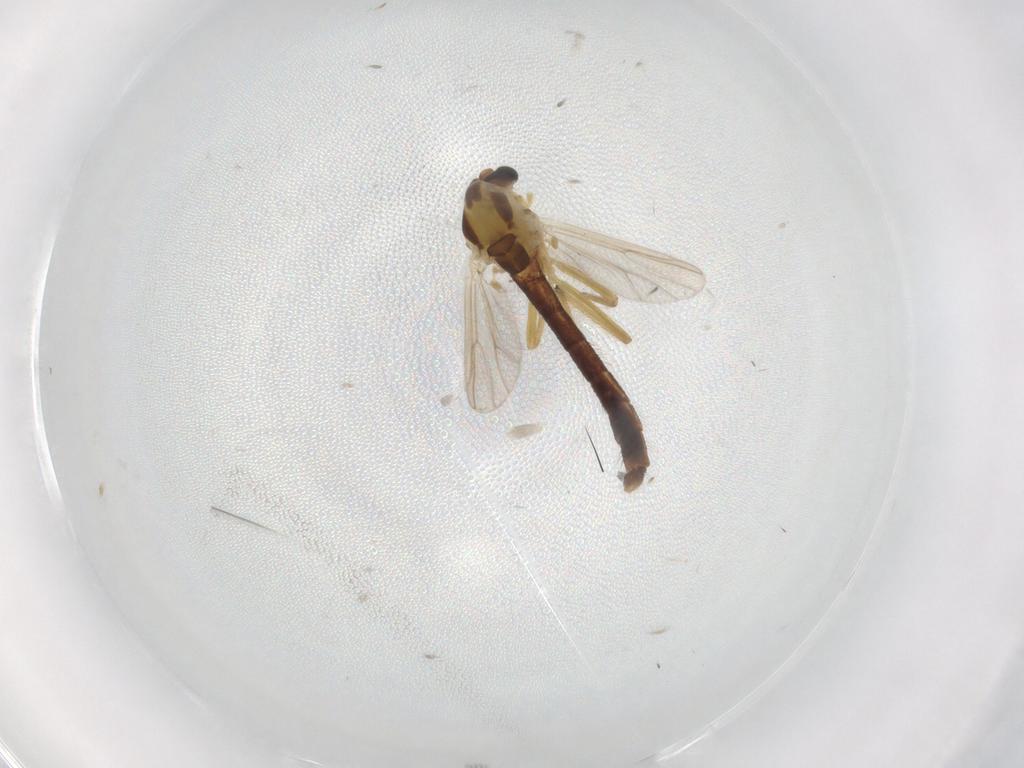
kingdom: Animalia
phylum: Arthropoda
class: Insecta
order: Diptera
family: Chironomidae
